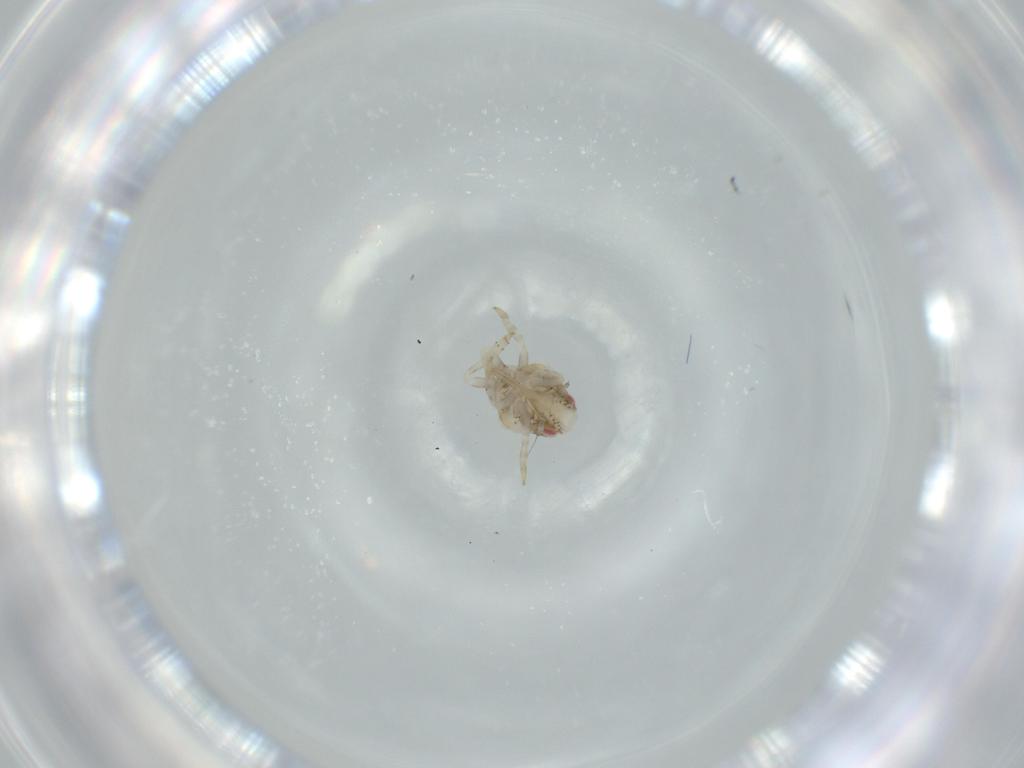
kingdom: Animalia
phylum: Arthropoda
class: Insecta
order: Hemiptera
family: Acanaloniidae
